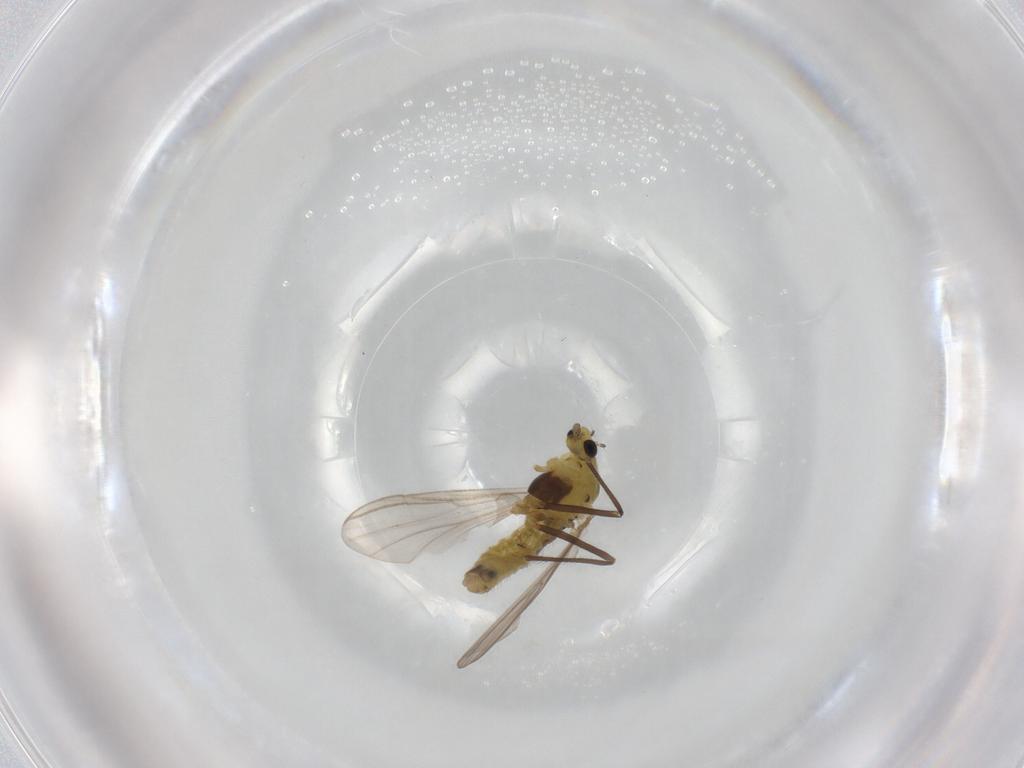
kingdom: Animalia
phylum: Arthropoda
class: Insecta
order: Diptera
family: Chironomidae
